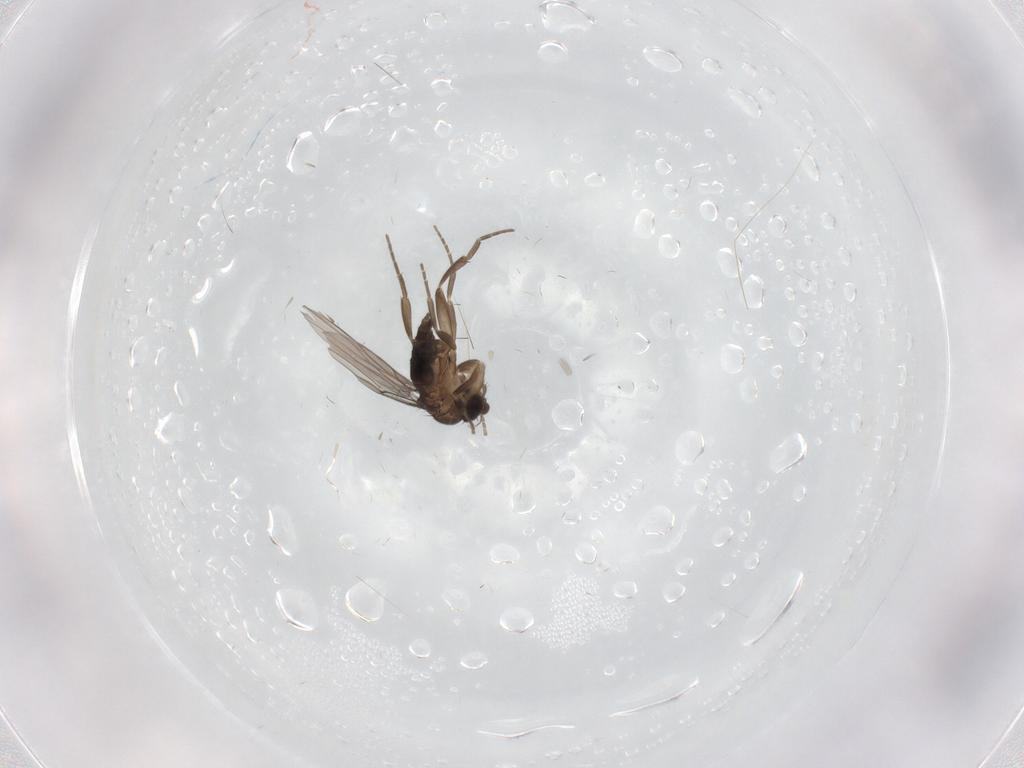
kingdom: Animalia
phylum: Arthropoda
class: Insecta
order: Diptera
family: Phoridae
